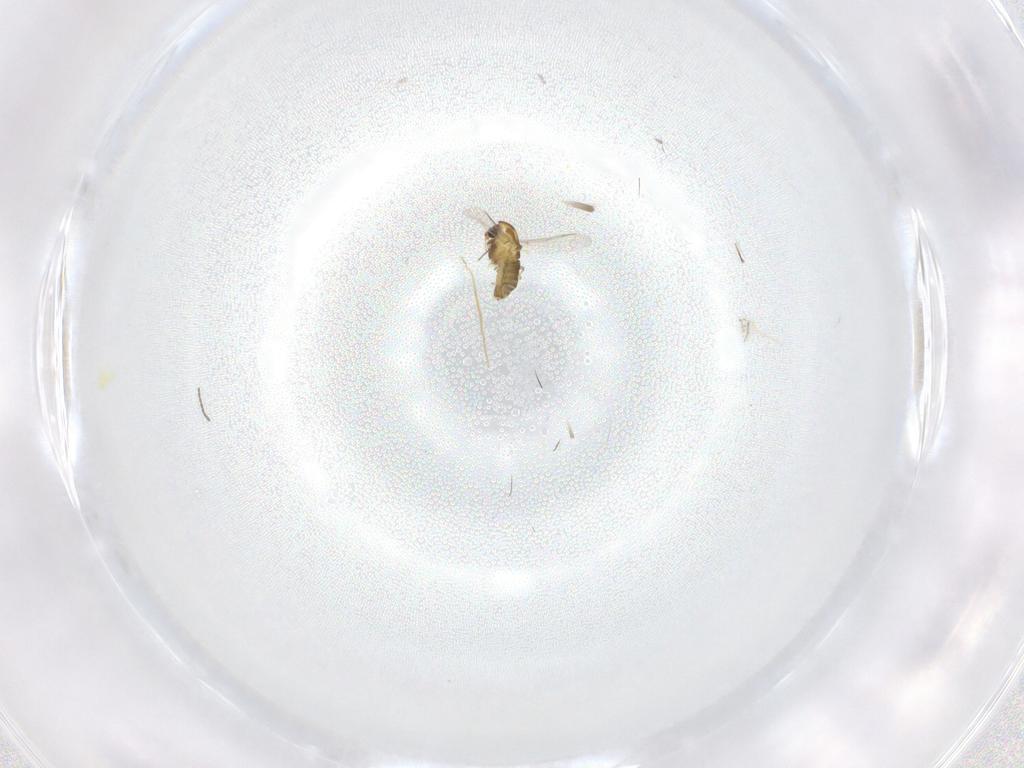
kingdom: Animalia
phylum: Arthropoda
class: Insecta
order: Diptera
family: Chironomidae
